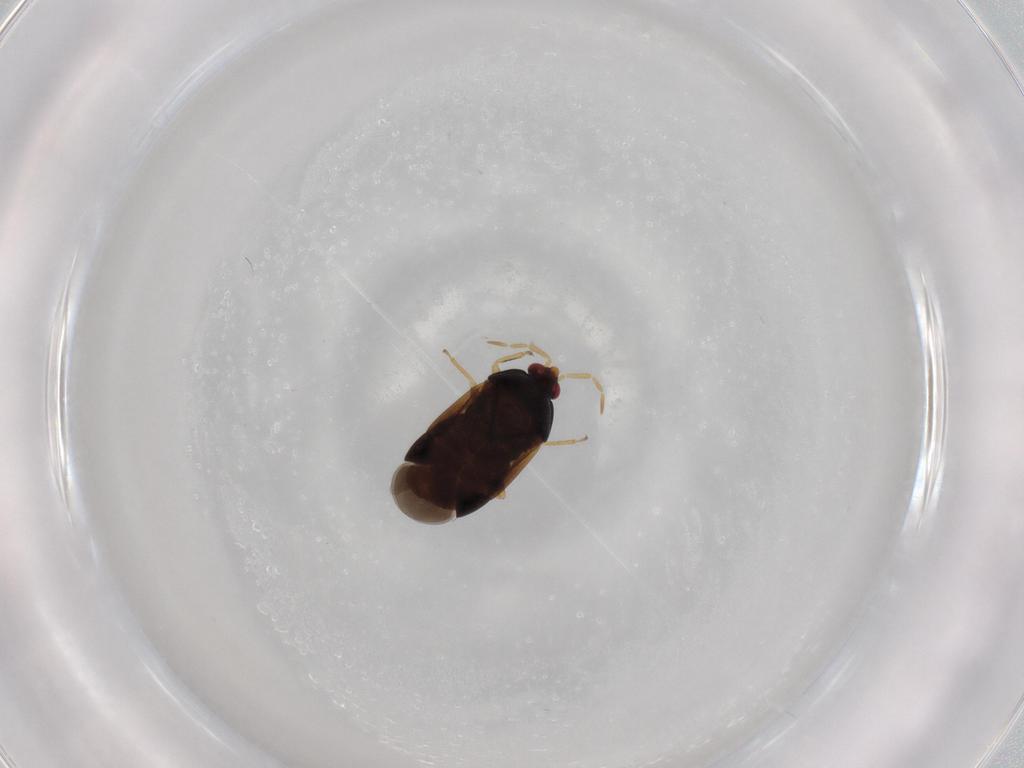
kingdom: Animalia
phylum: Arthropoda
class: Insecta
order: Hemiptera
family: Anthocoridae
